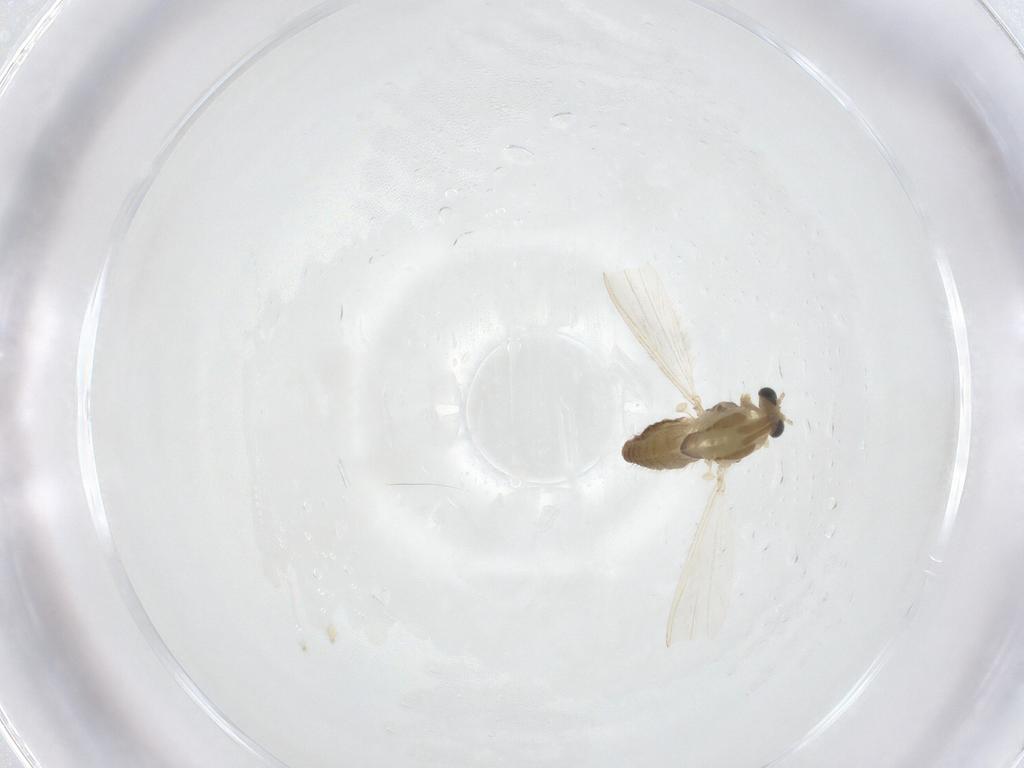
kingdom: Animalia
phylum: Arthropoda
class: Insecta
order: Diptera
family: Chironomidae
